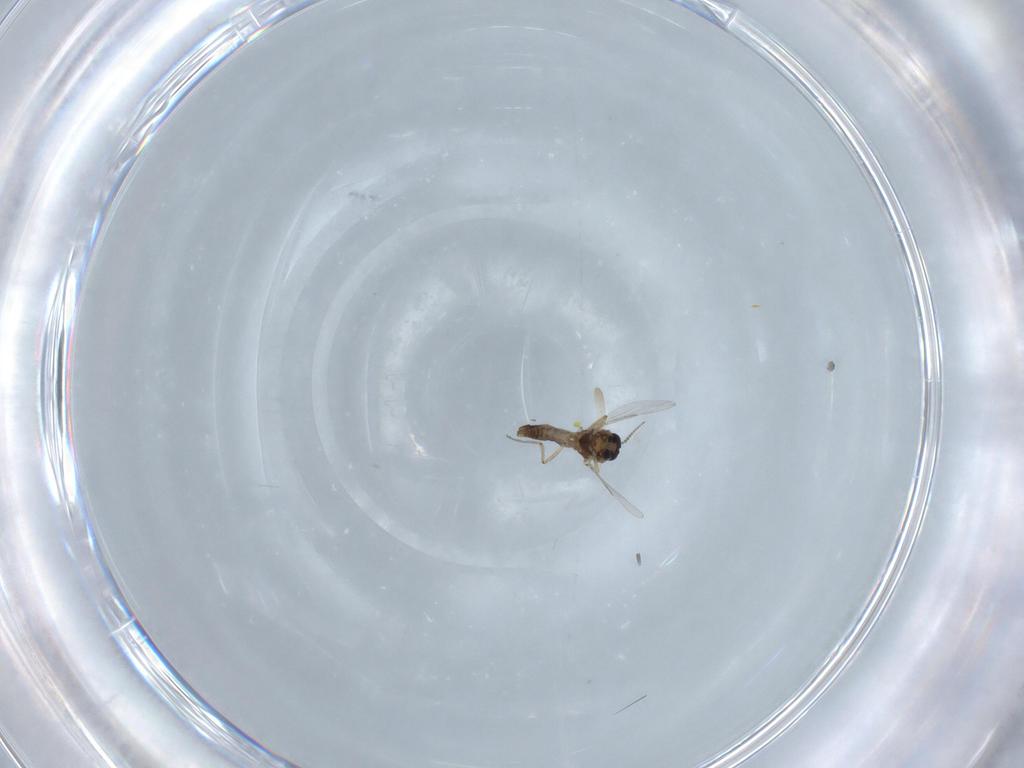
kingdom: Animalia
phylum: Arthropoda
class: Insecta
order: Diptera
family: Ceratopogonidae
